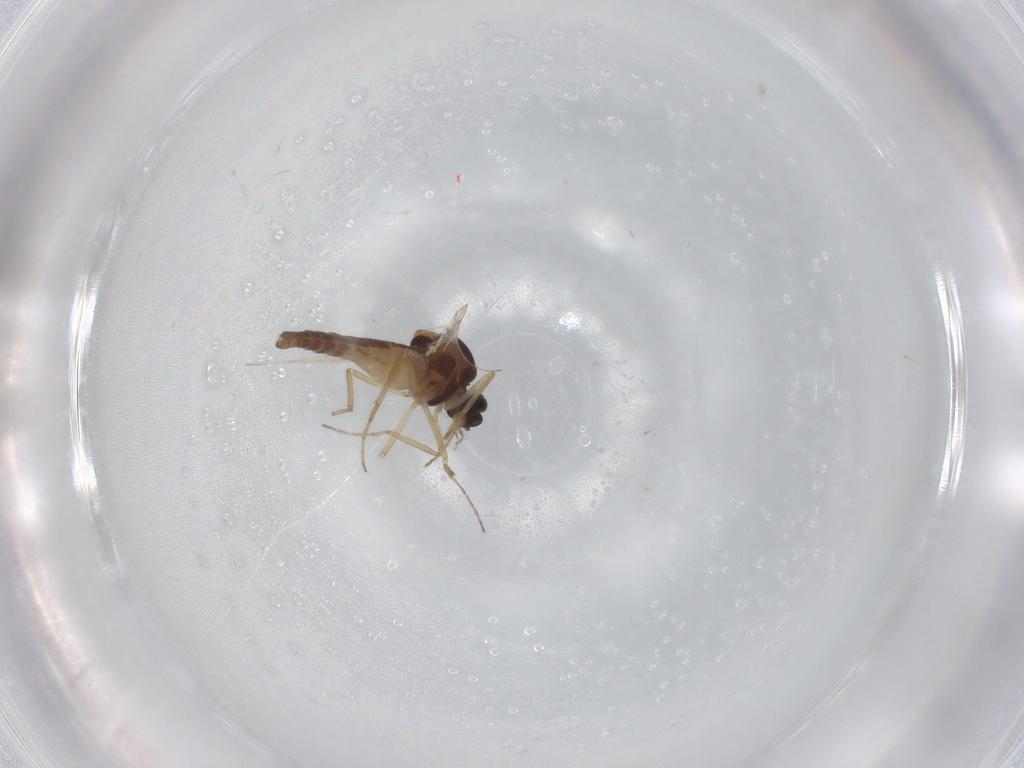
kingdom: Animalia
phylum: Arthropoda
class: Insecta
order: Diptera
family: Ceratopogonidae
